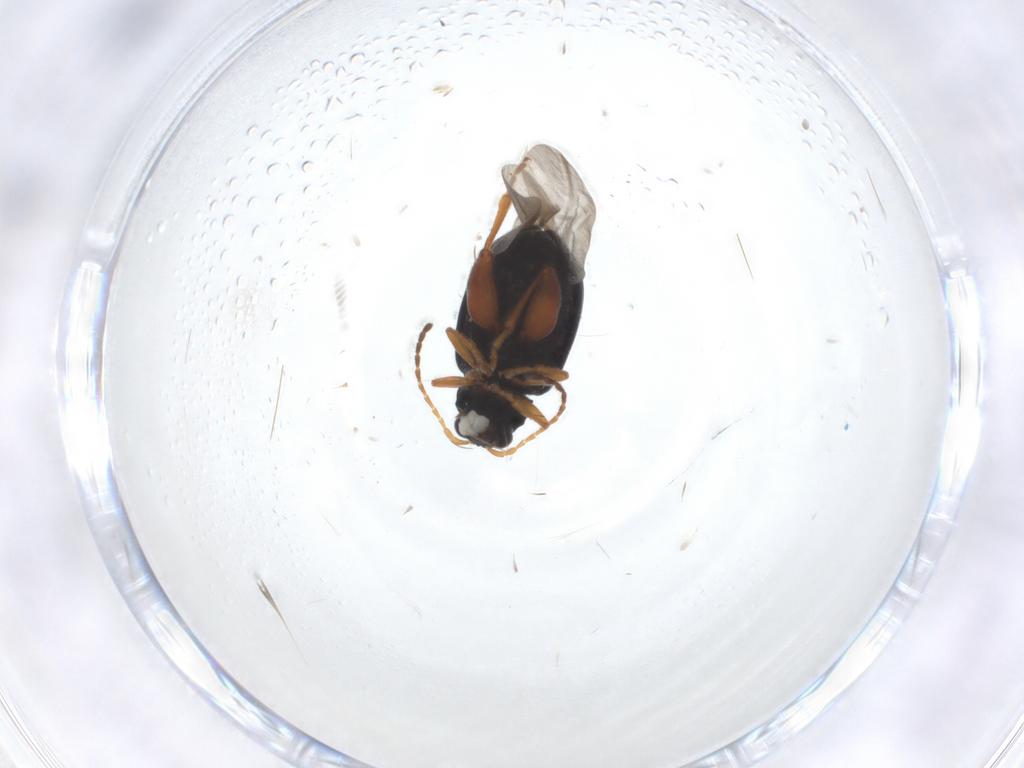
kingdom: Animalia
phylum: Arthropoda
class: Insecta
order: Coleoptera
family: Chrysomelidae
